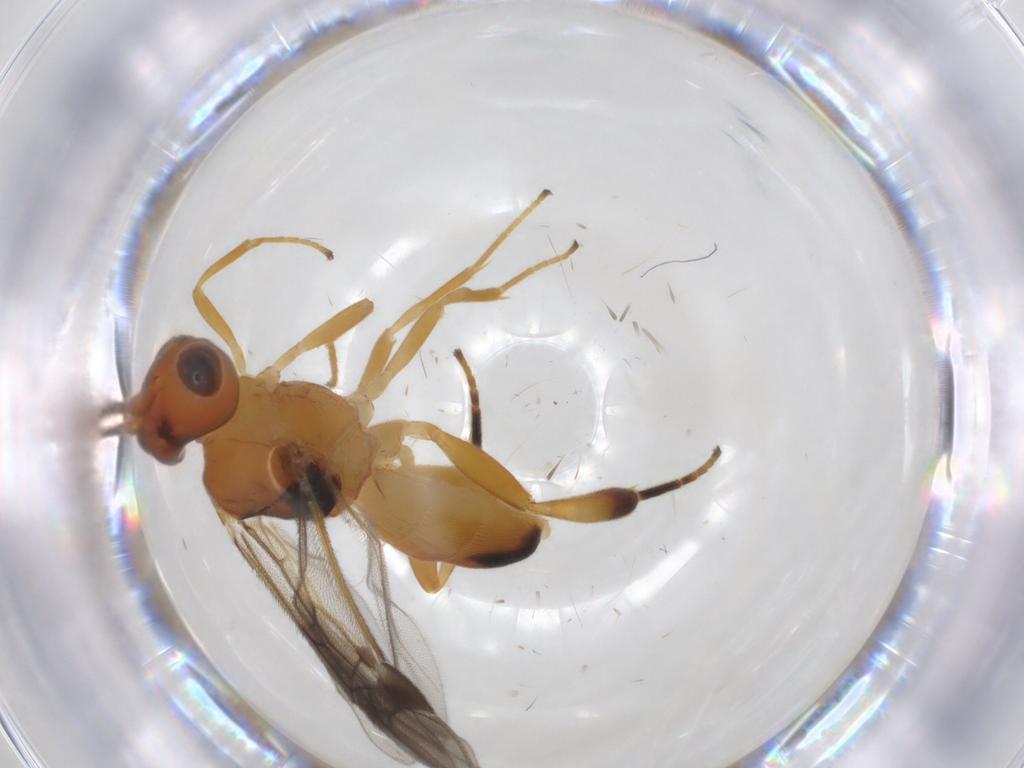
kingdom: Animalia
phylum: Arthropoda
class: Insecta
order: Hymenoptera
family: Braconidae
